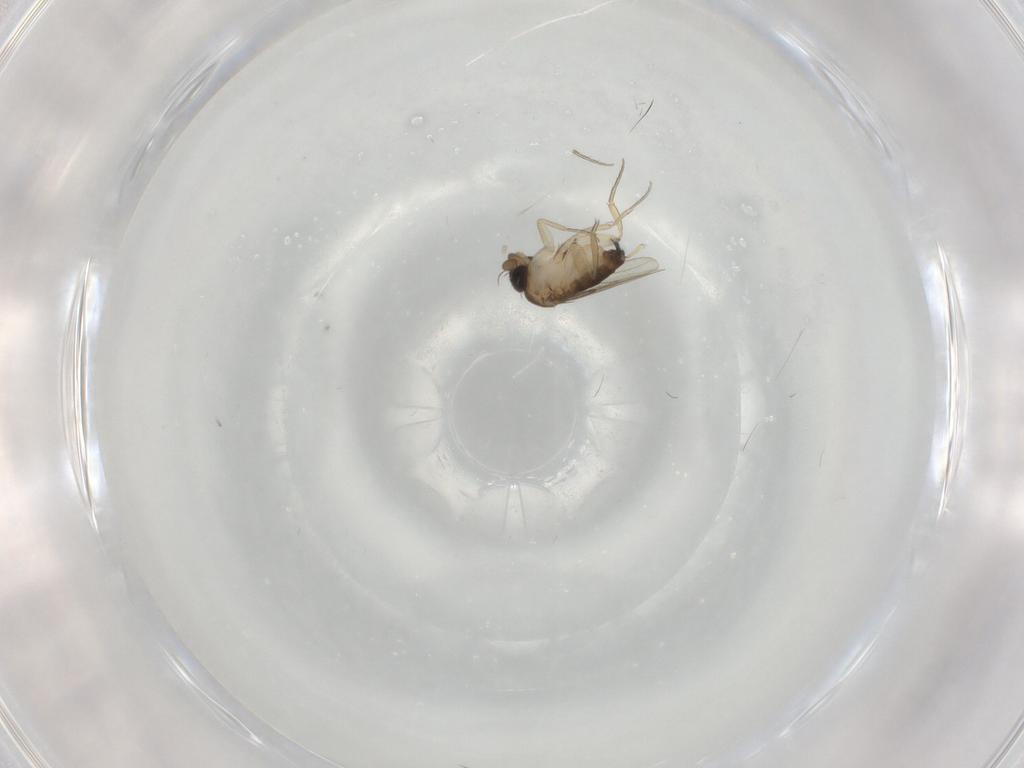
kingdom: Animalia
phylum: Arthropoda
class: Insecta
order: Diptera
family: Phoridae
